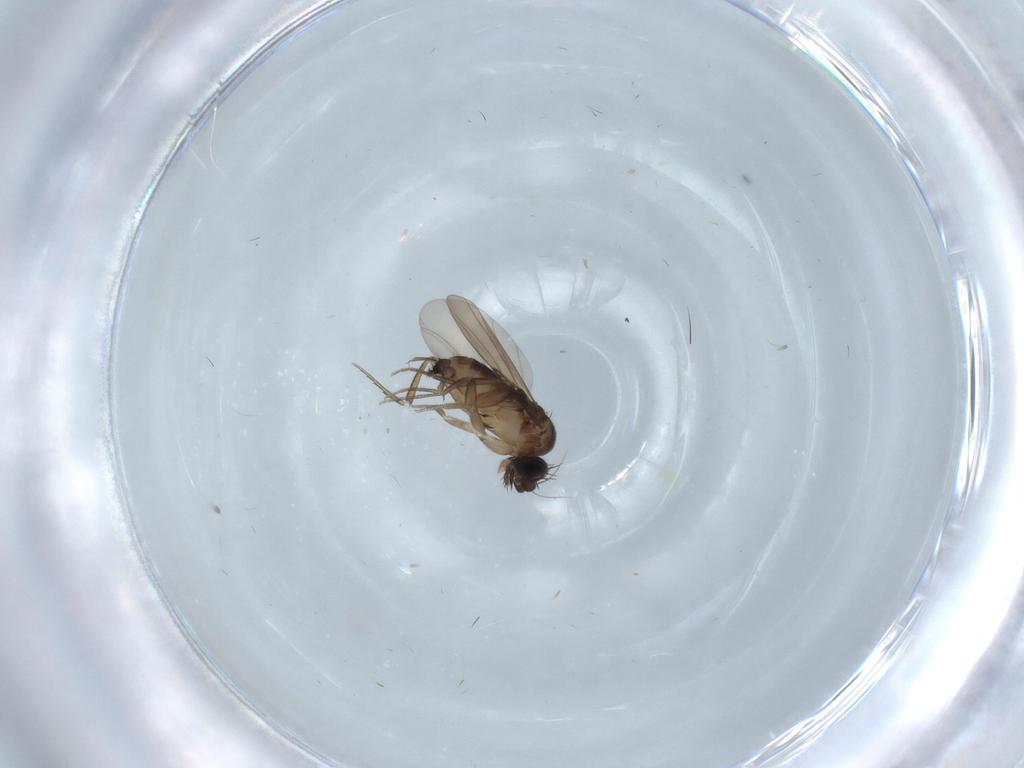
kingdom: Animalia
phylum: Arthropoda
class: Insecta
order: Diptera
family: Phoridae
